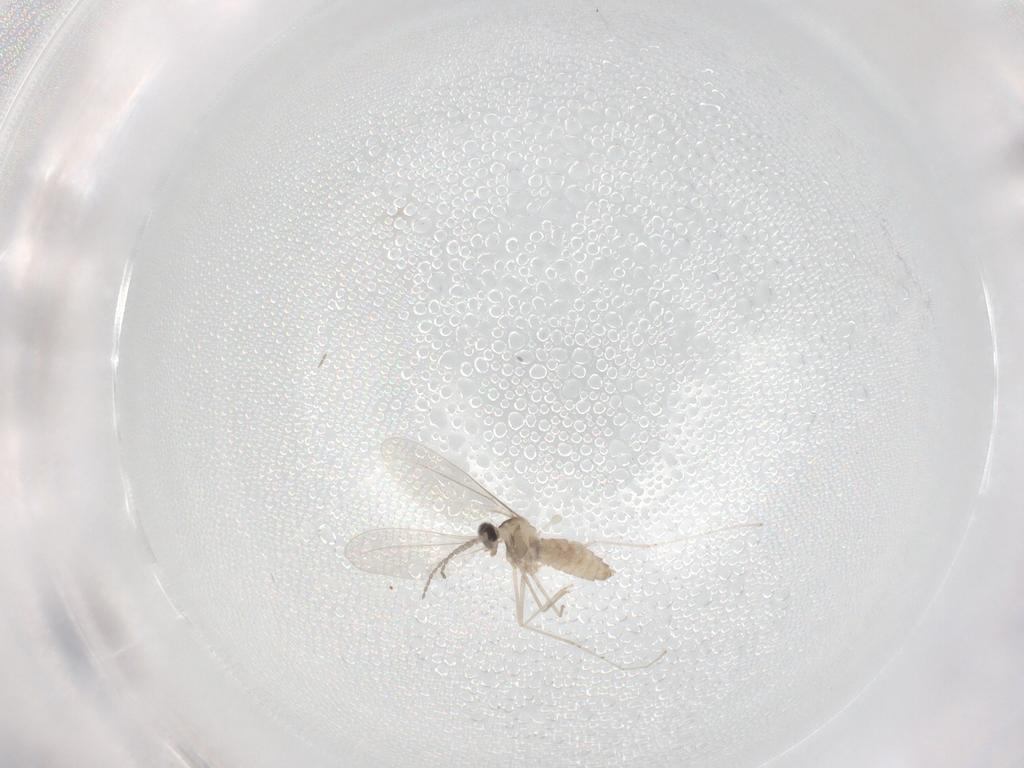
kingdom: Animalia
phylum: Arthropoda
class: Insecta
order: Diptera
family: Cecidomyiidae
